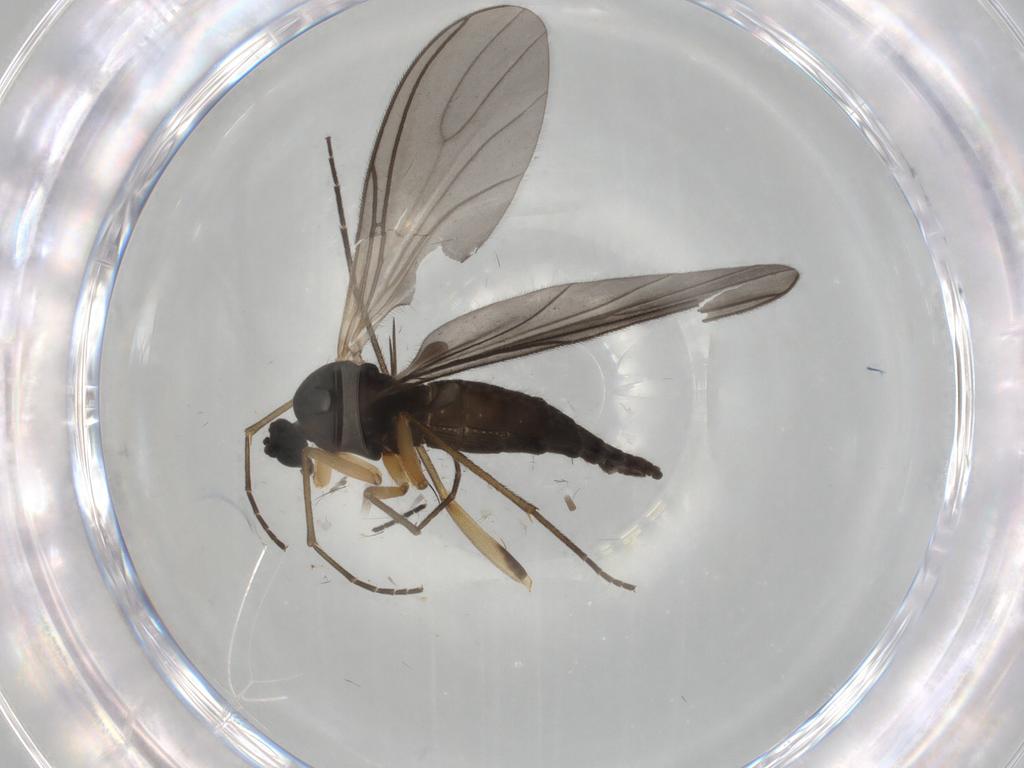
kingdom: Animalia
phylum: Arthropoda
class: Insecta
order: Diptera
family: Sciaridae
